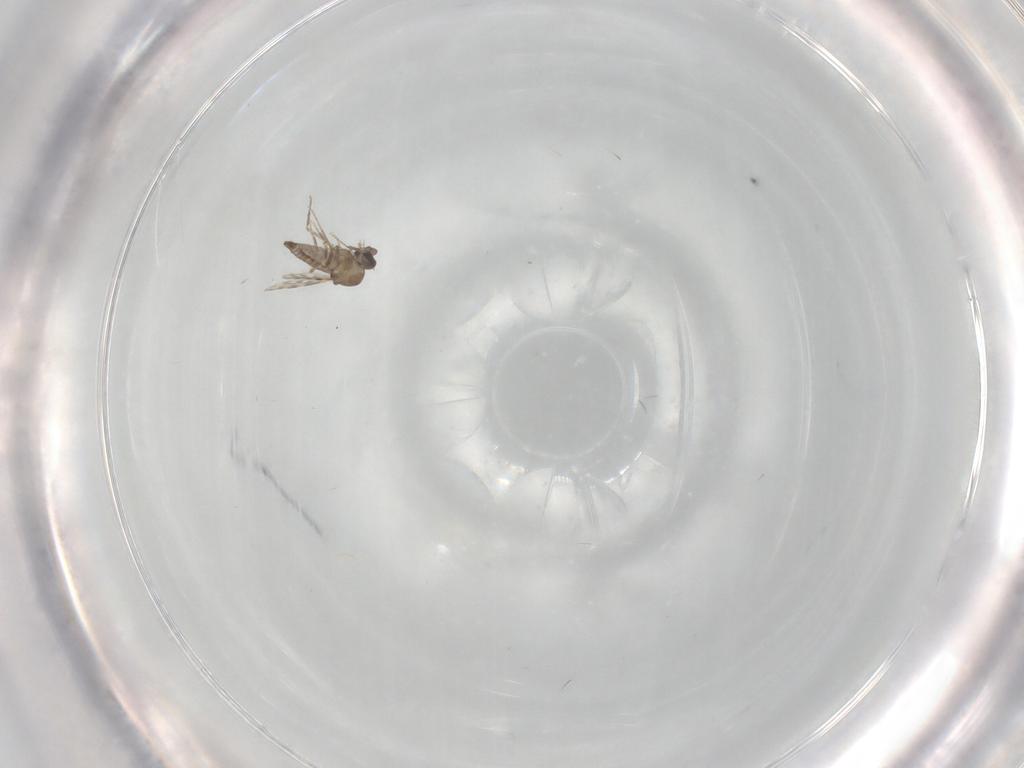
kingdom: Animalia
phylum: Arthropoda
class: Insecta
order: Diptera
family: Ceratopogonidae
